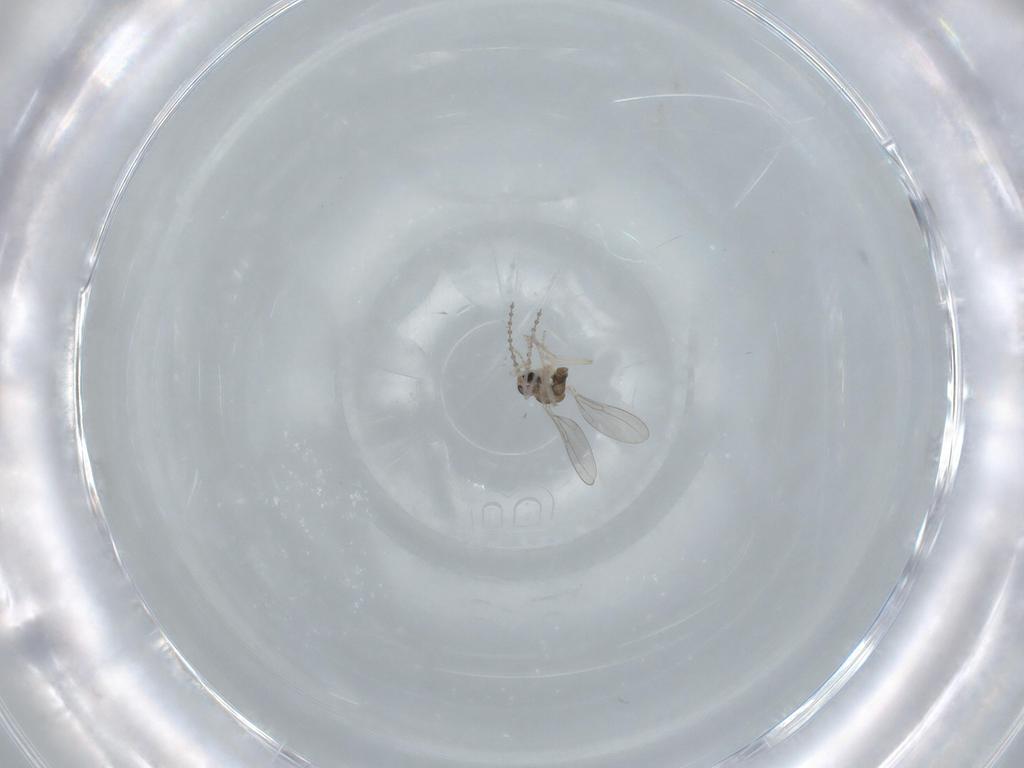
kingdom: Animalia
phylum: Arthropoda
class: Insecta
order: Diptera
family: Cecidomyiidae
